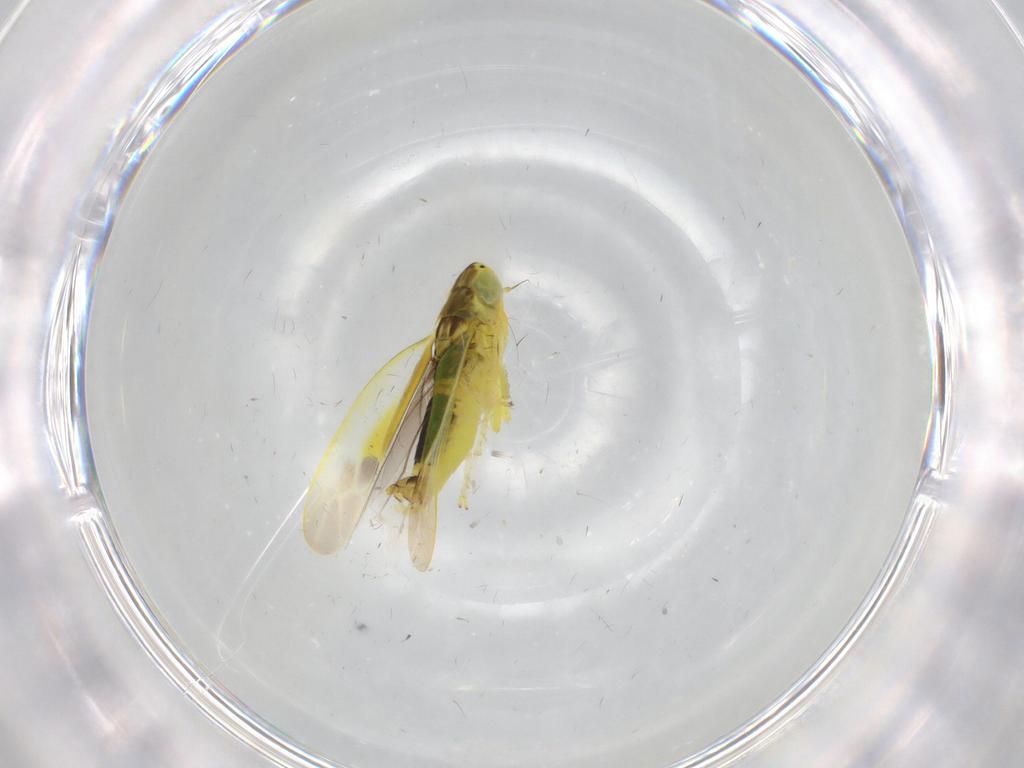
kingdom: Animalia
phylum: Arthropoda
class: Insecta
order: Hemiptera
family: Cicadellidae
